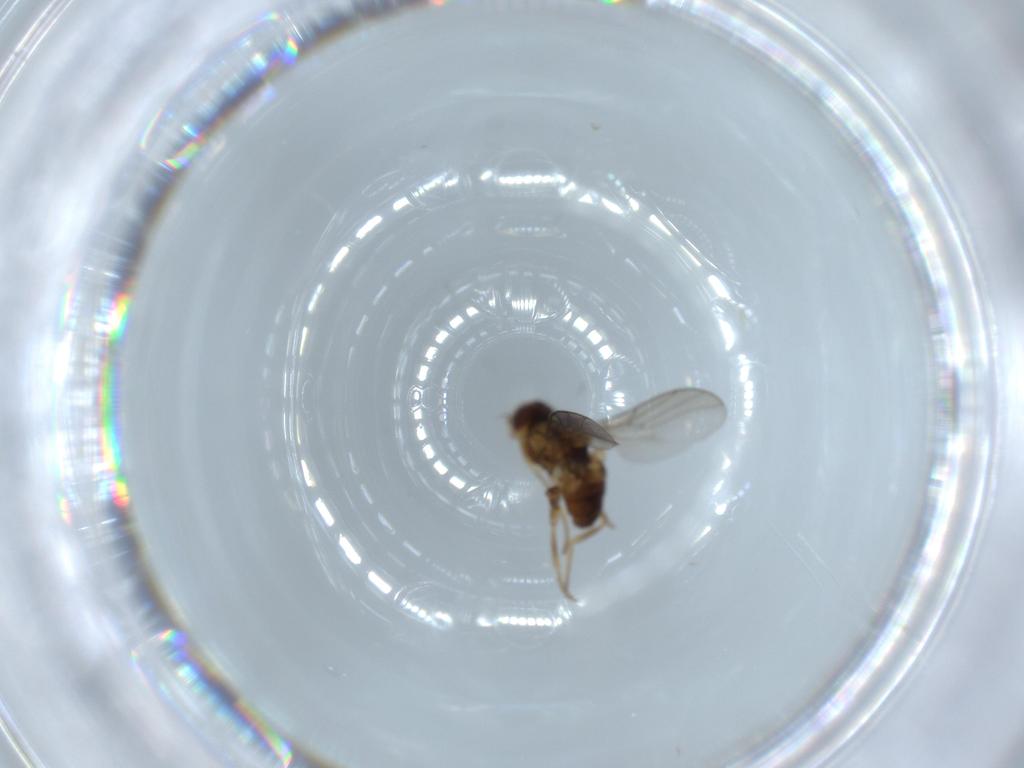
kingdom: Animalia
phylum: Arthropoda
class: Insecta
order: Diptera
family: Chloropidae
